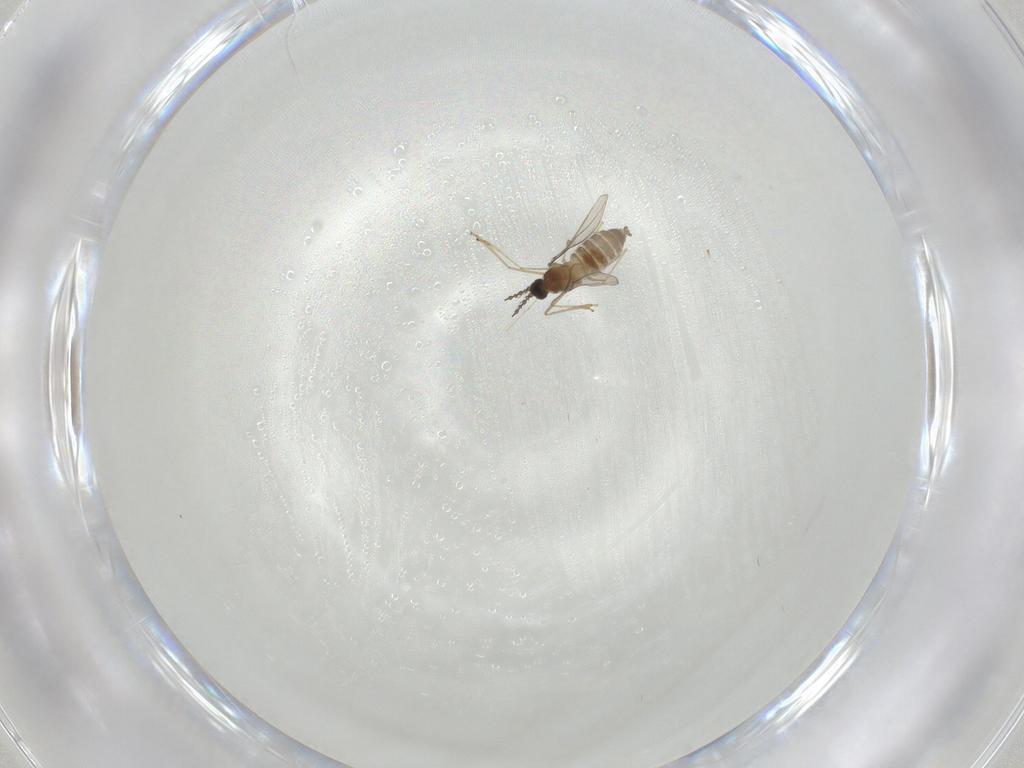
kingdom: Animalia
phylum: Arthropoda
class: Insecta
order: Diptera
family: Cecidomyiidae
